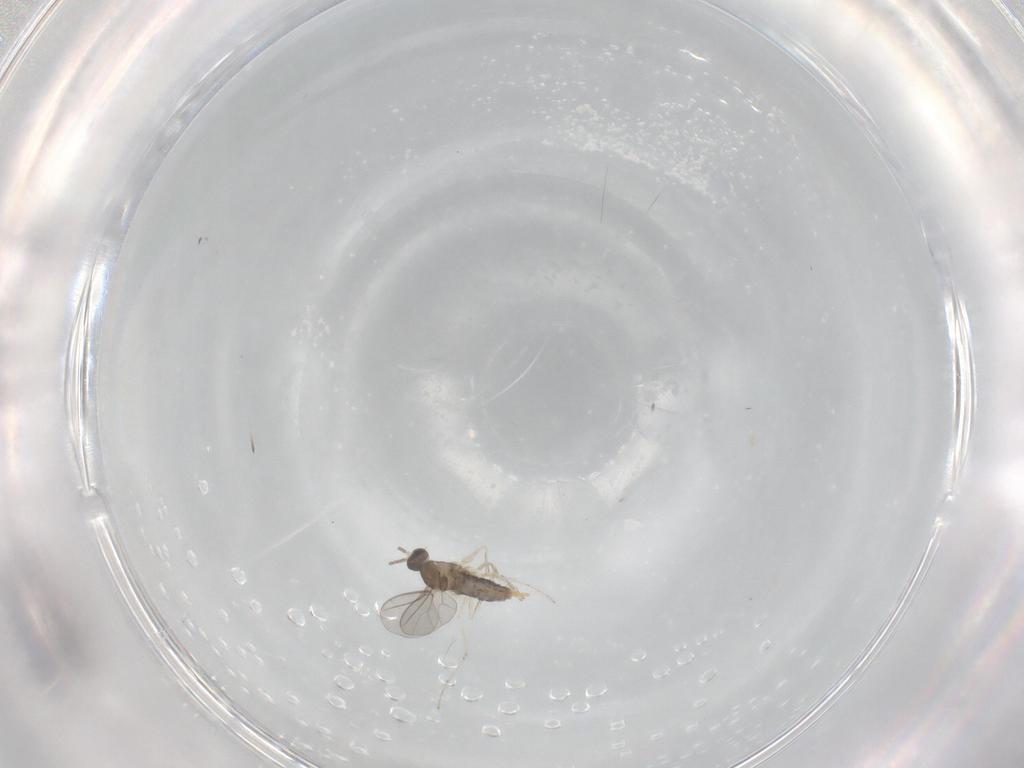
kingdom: Animalia
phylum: Arthropoda
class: Insecta
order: Diptera
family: Cecidomyiidae
